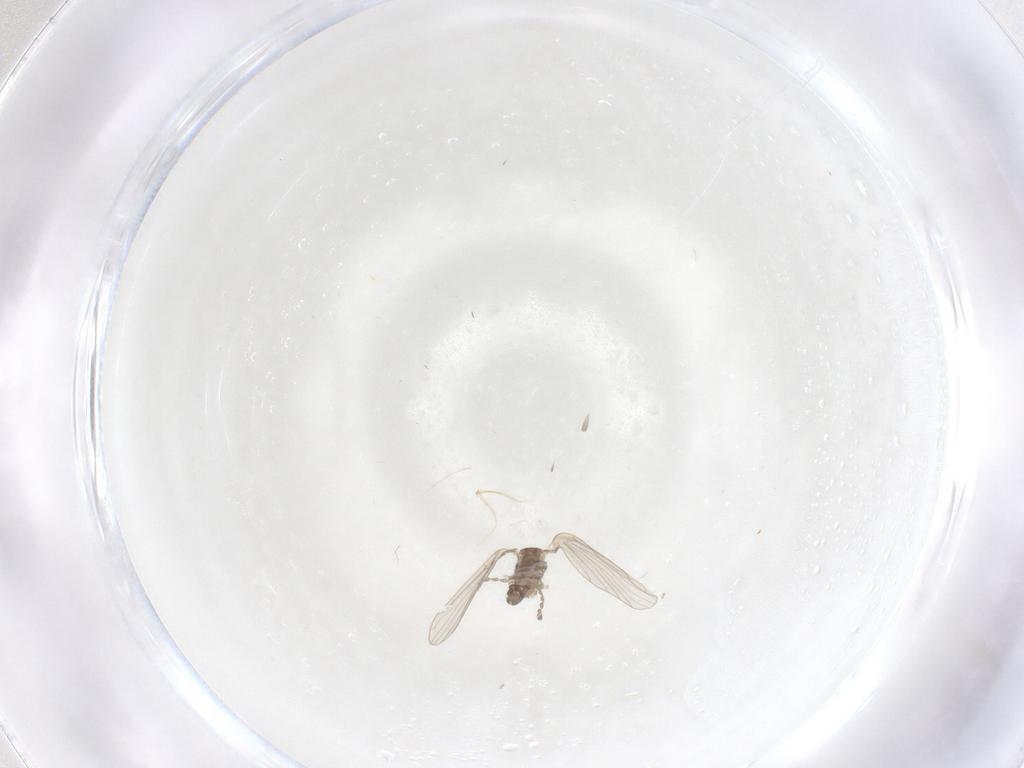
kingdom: Animalia
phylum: Arthropoda
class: Insecta
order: Diptera
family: Psychodidae
